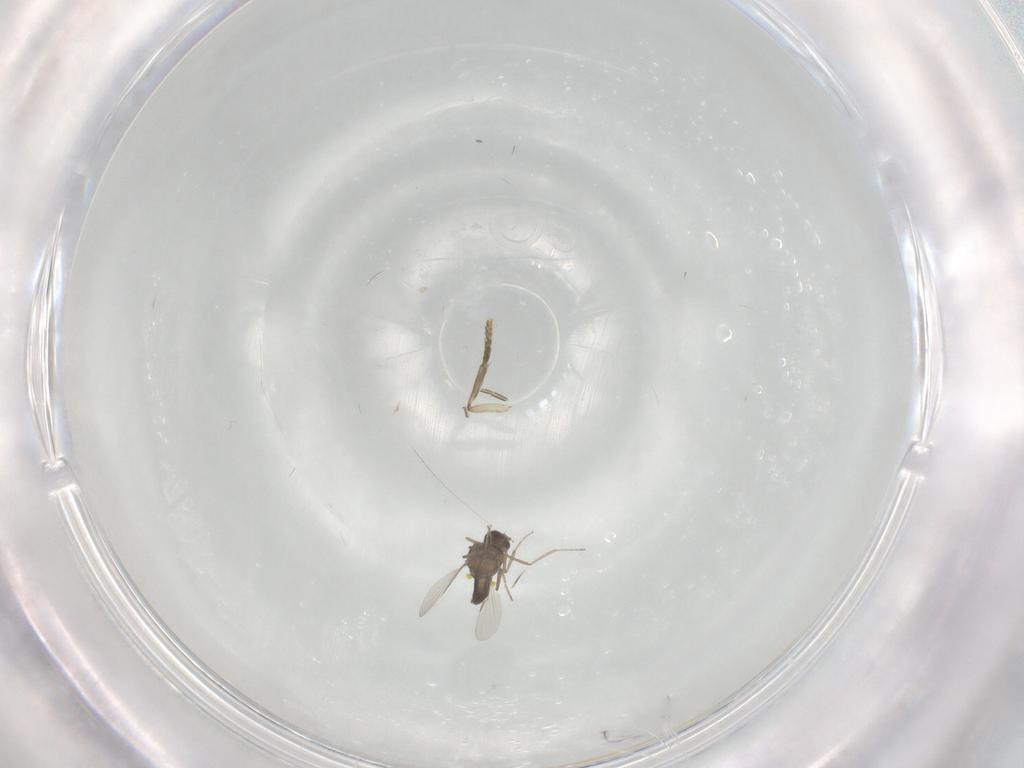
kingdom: Animalia
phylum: Arthropoda
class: Insecta
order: Diptera
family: Ceratopogonidae
